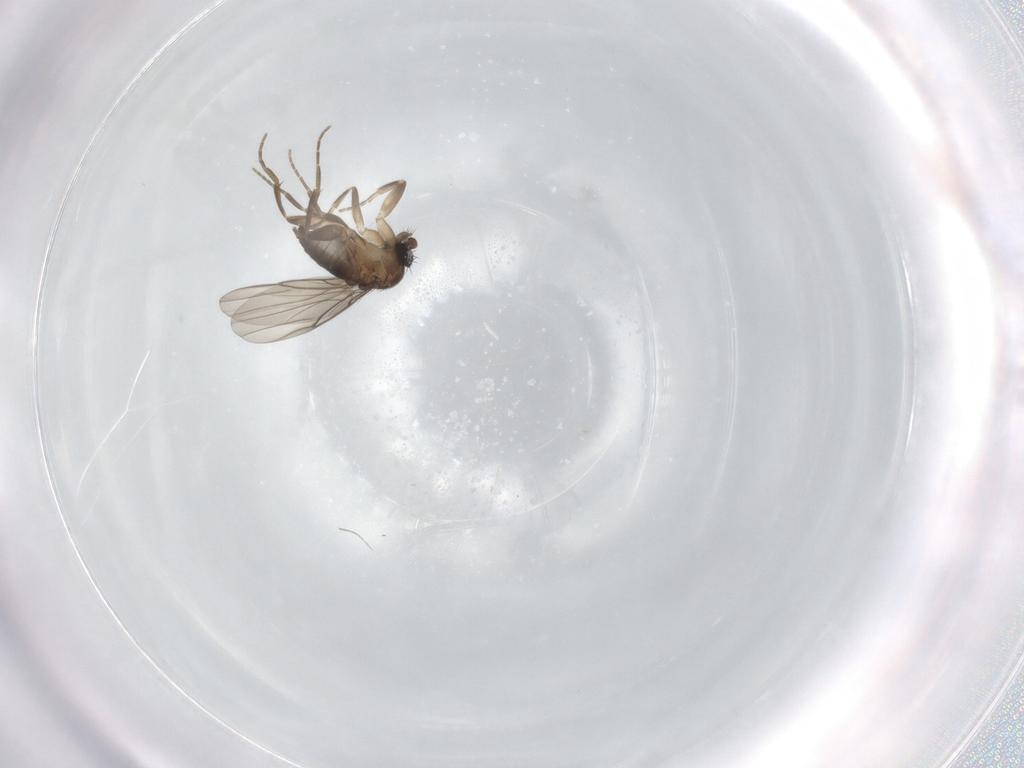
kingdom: Animalia
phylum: Arthropoda
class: Insecta
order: Diptera
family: Phoridae
